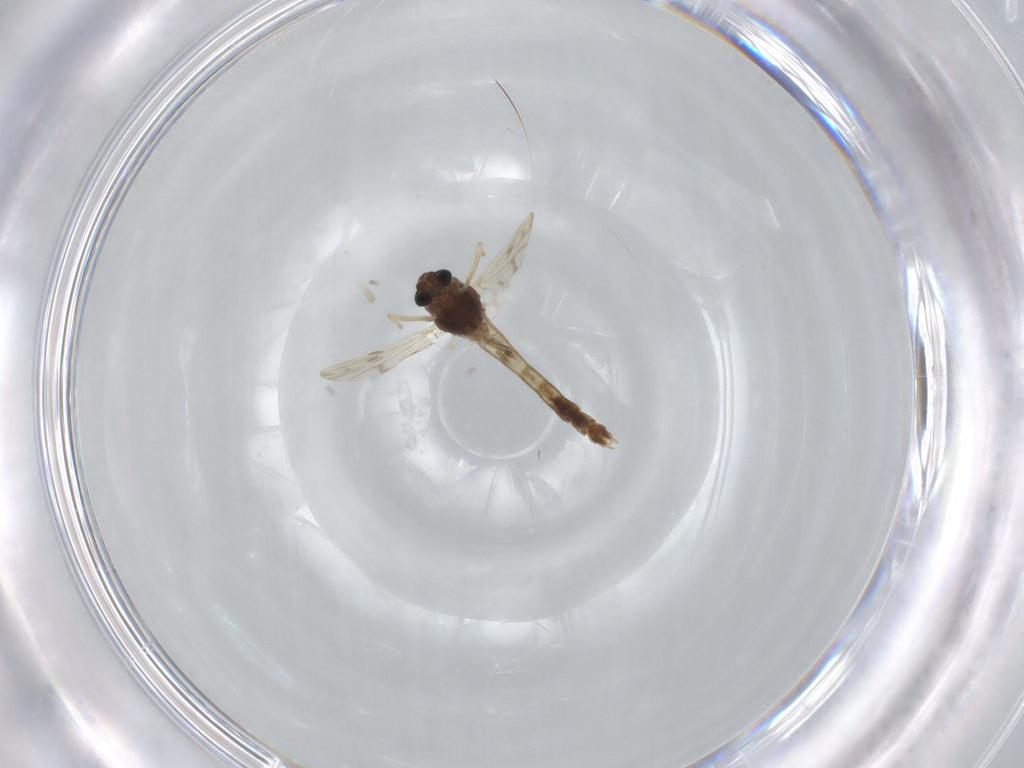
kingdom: Animalia
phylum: Arthropoda
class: Insecta
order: Diptera
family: Chironomidae
